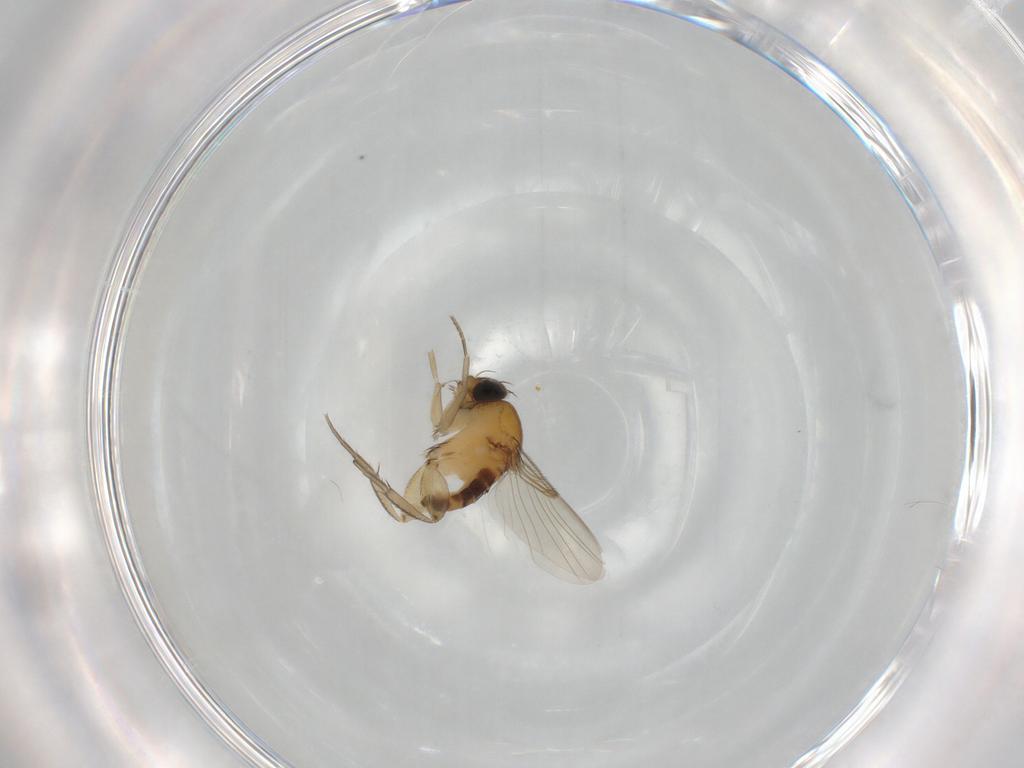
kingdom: Animalia
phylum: Arthropoda
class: Insecta
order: Diptera
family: Phoridae
